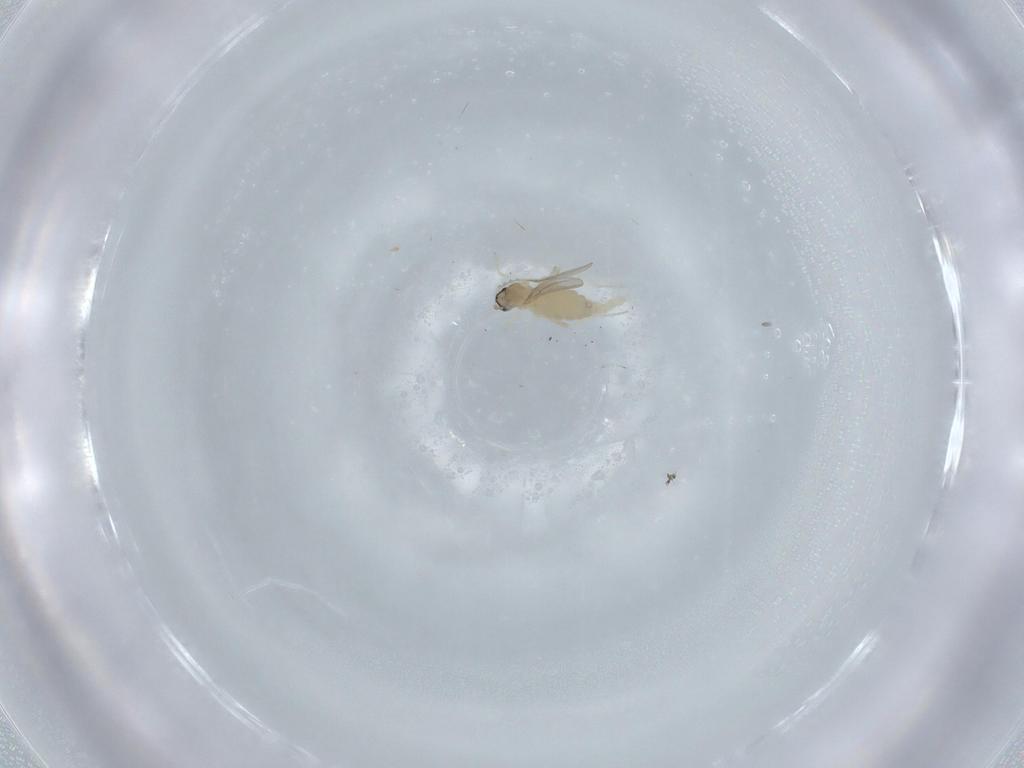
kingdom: Animalia
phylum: Arthropoda
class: Insecta
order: Diptera
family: Cecidomyiidae
